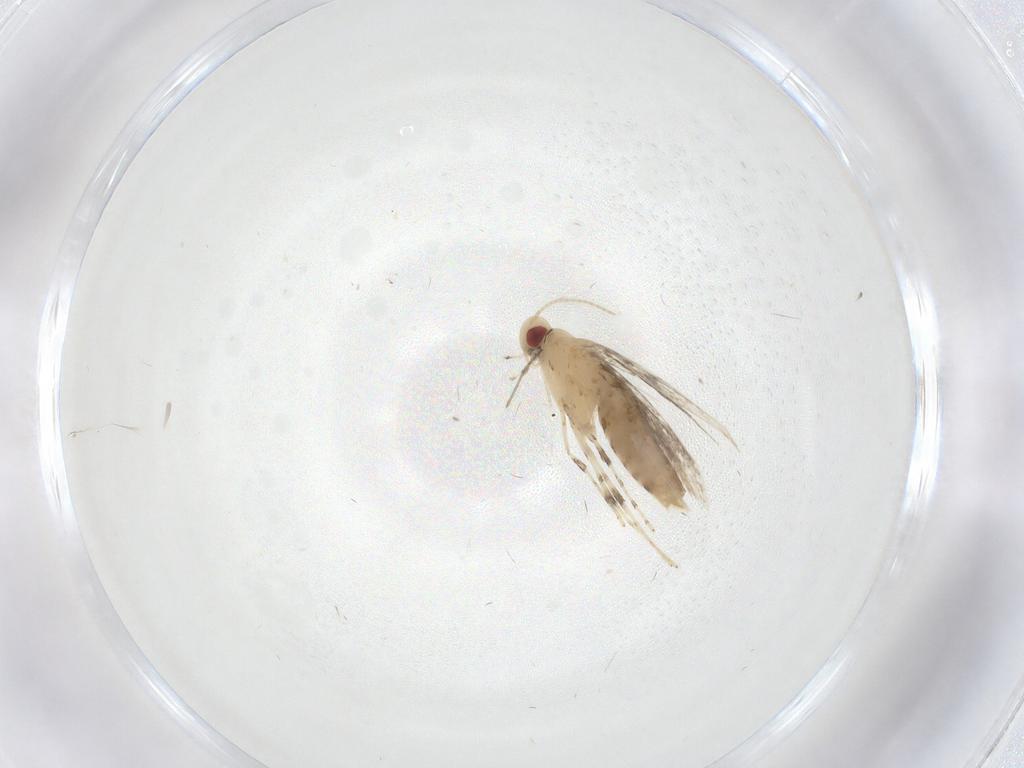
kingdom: Animalia
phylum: Arthropoda
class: Insecta
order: Lepidoptera
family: Gracillariidae
